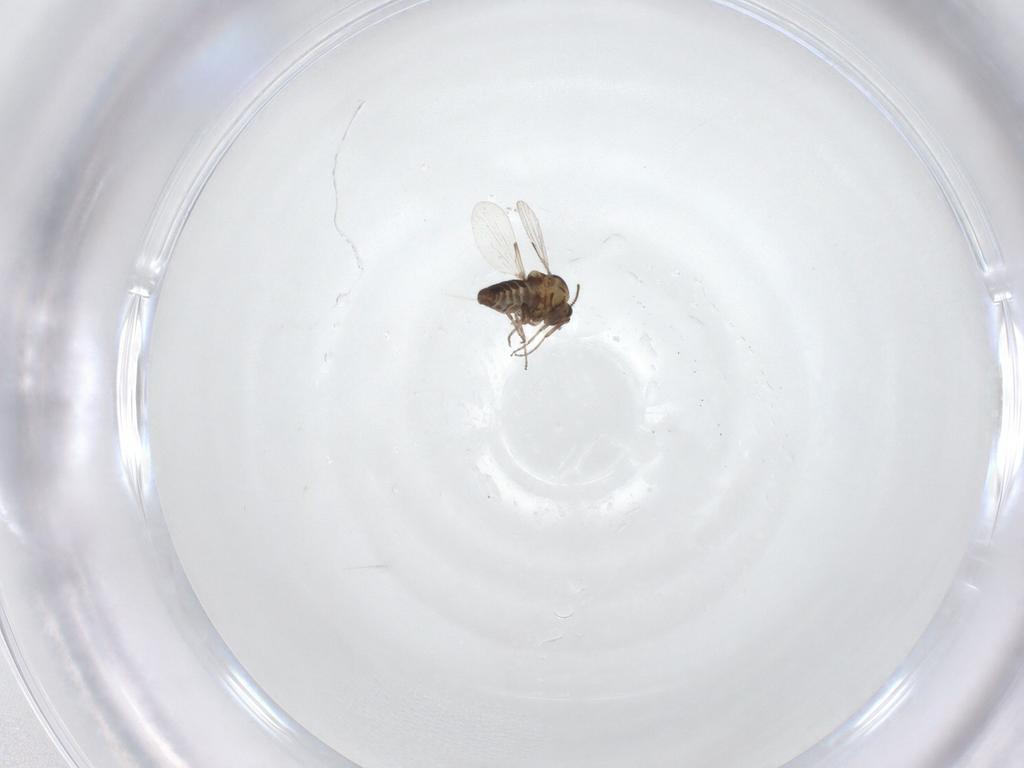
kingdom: Animalia
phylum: Arthropoda
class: Insecta
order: Diptera
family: Ceratopogonidae
